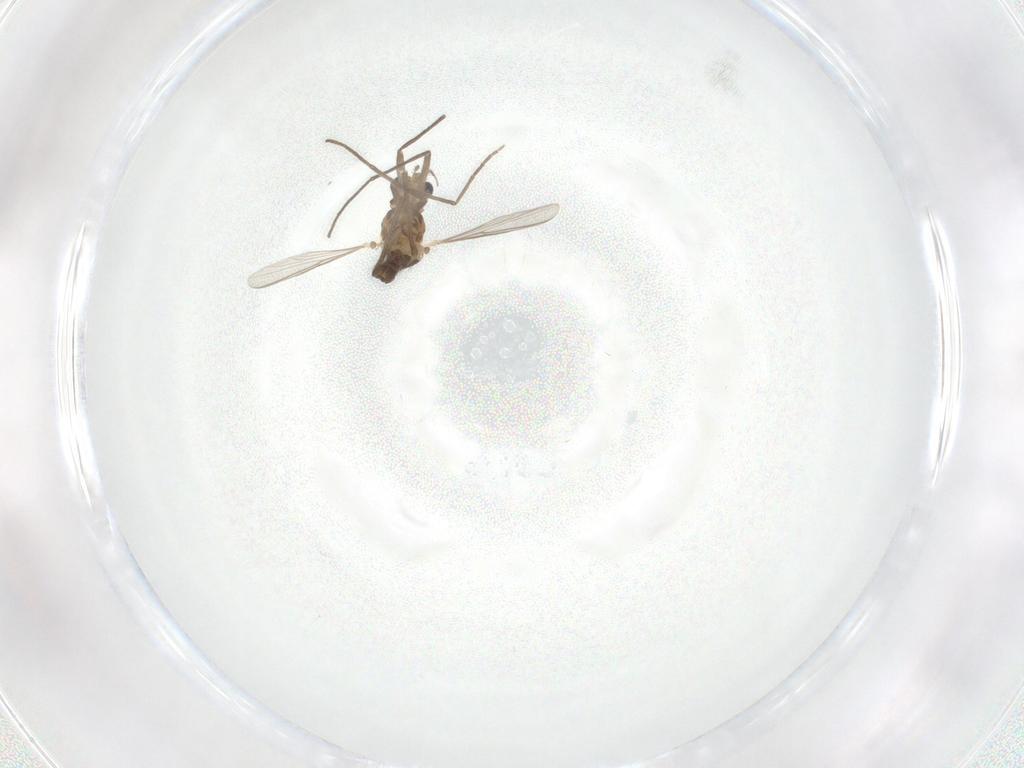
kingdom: Animalia
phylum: Arthropoda
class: Insecta
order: Diptera
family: Chironomidae
